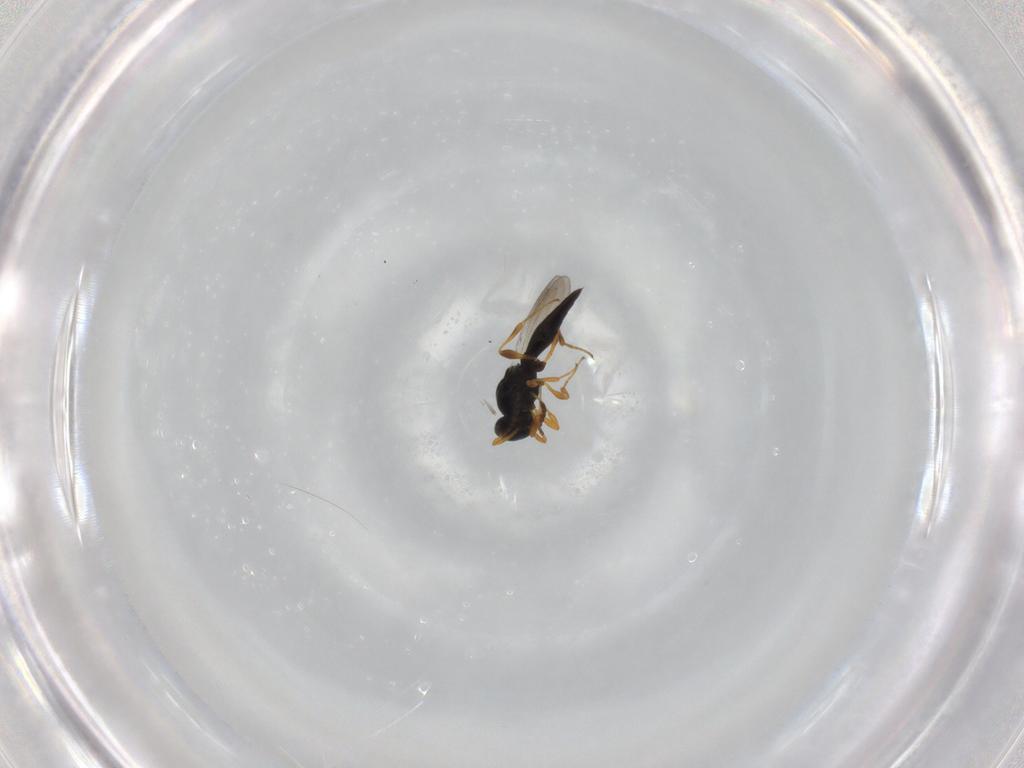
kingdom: Animalia
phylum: Arthropoda
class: Insecta
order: Hymenoptera
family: Platygastridae
